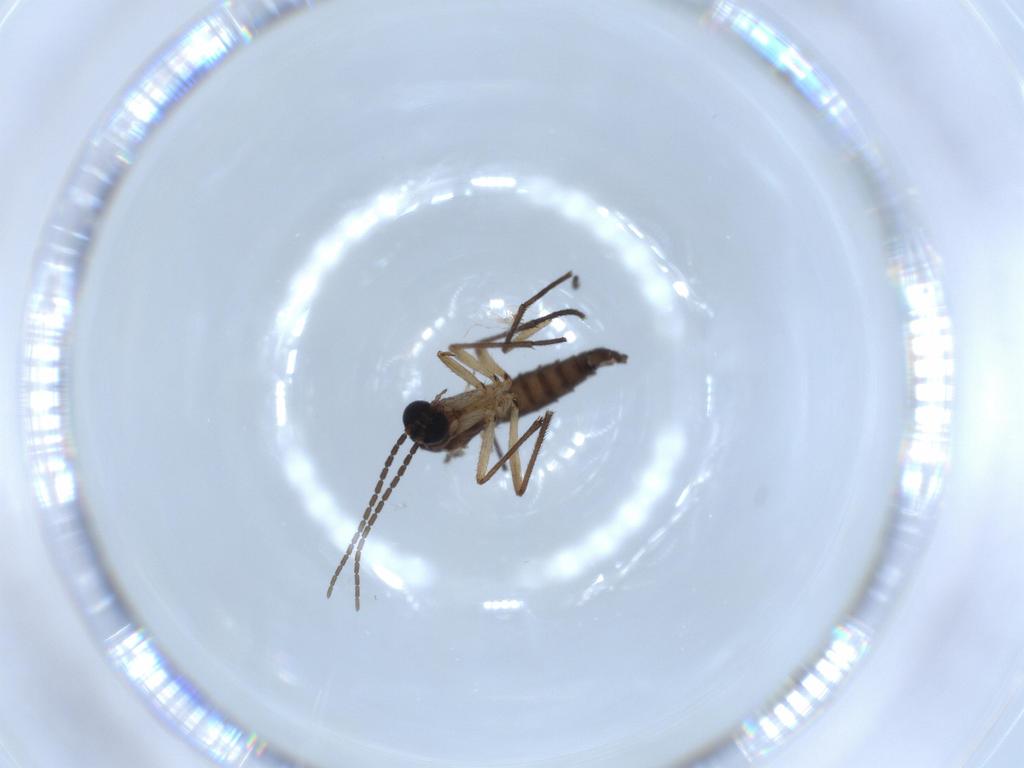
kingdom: Animalia
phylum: Arthropoda
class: Insecta
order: Diptera
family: Sciaridae
